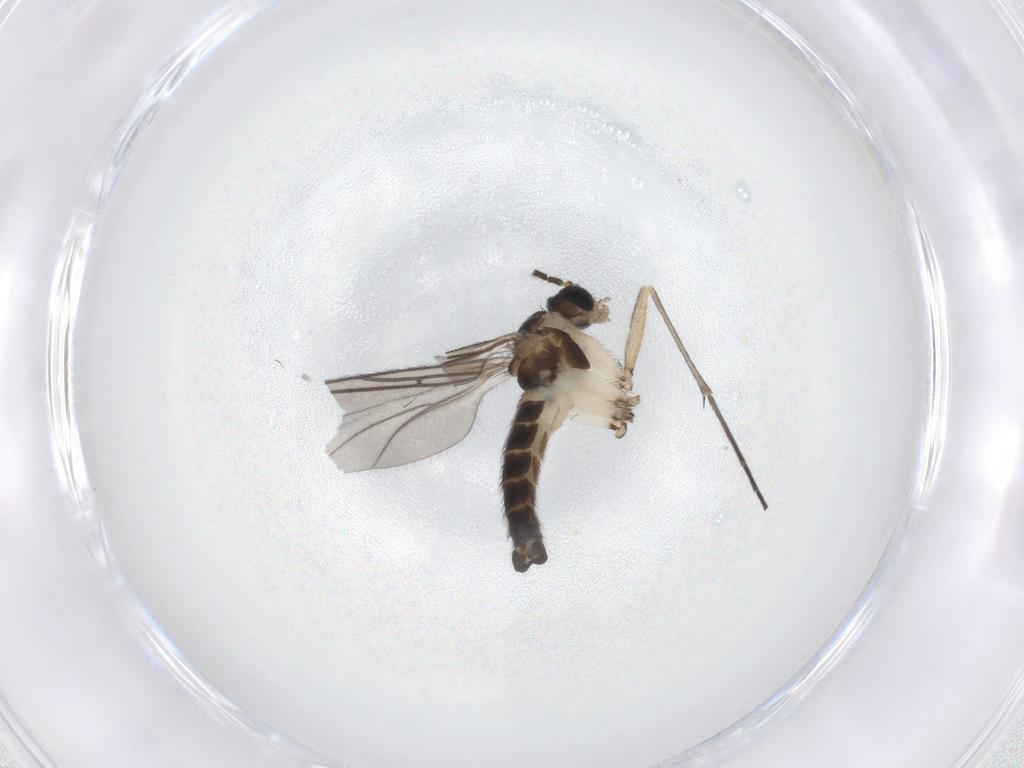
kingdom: Animalia
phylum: Arthropoda
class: Insecta
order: Diptera
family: Sciaridae
